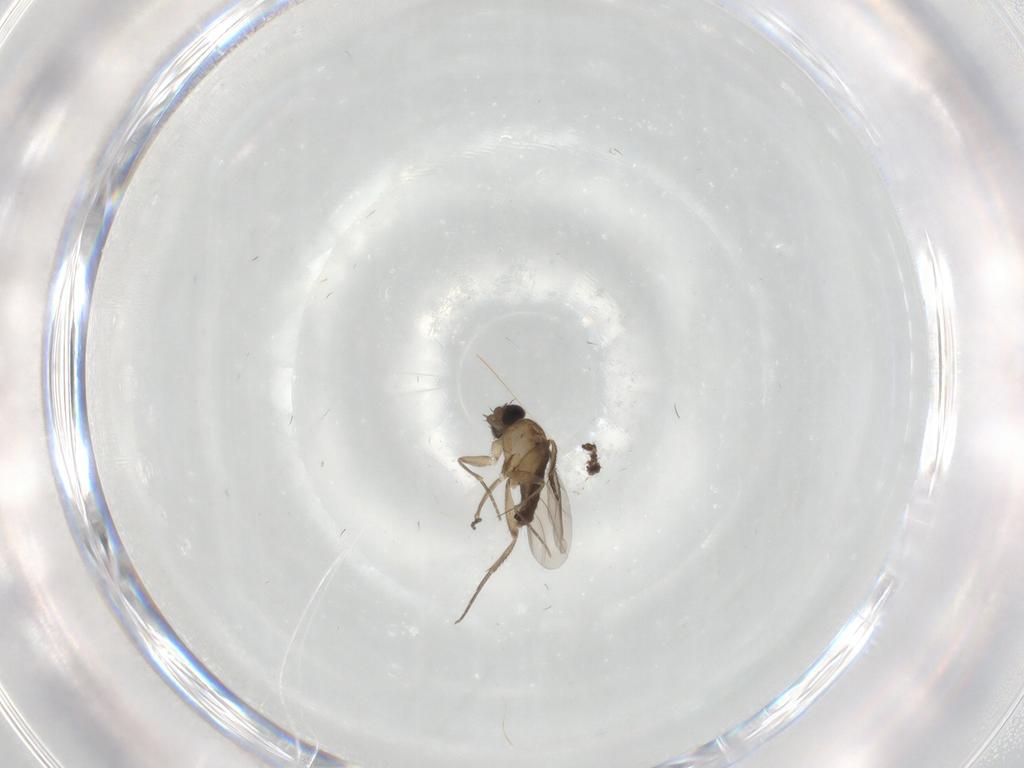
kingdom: Animalia
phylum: Arthropoda
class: Insecta
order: Diptera
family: Phoridae
